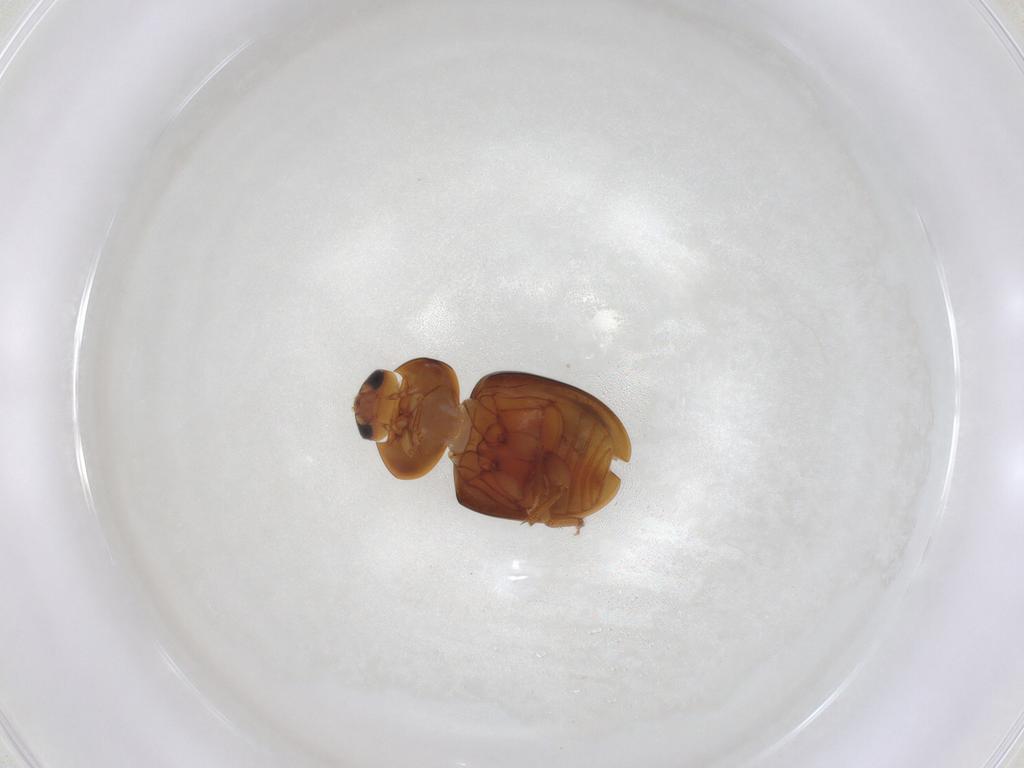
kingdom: Animalia
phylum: Arthropoda
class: Insecta
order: Coleoptera
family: Phalacridae
